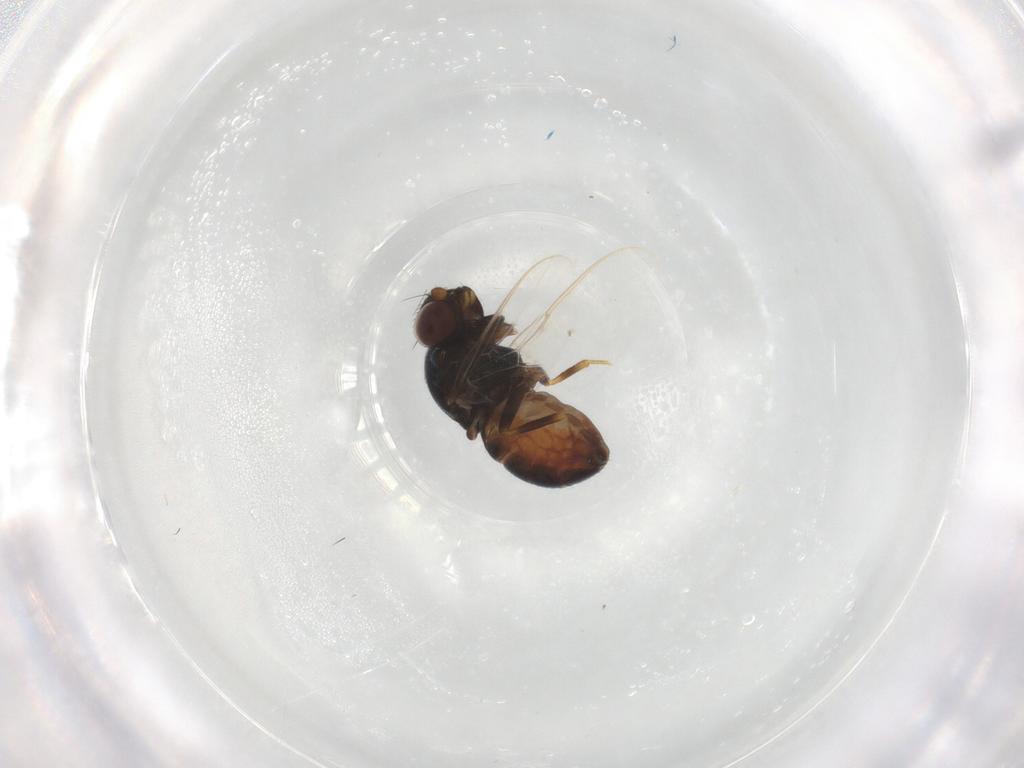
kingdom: Animalia
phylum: Arthropoda
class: Insecta
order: Diptera
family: Chloropidae
